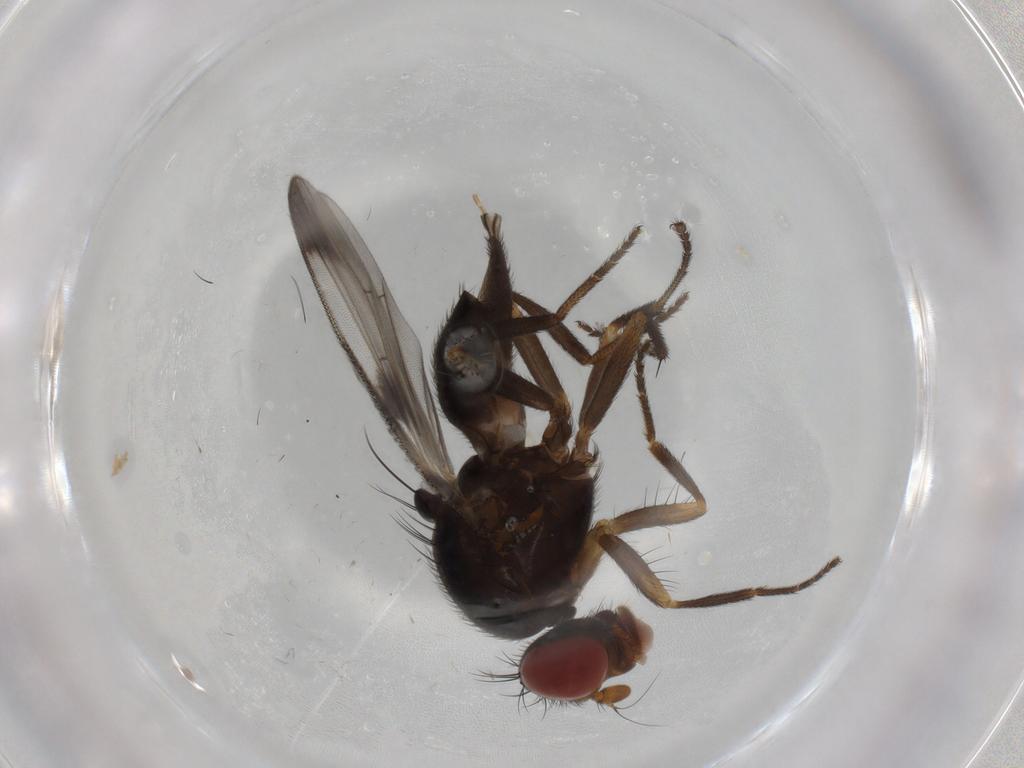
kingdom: Animalia
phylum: Arthropoda
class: Insecta
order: Diptera
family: Ulidiidae
